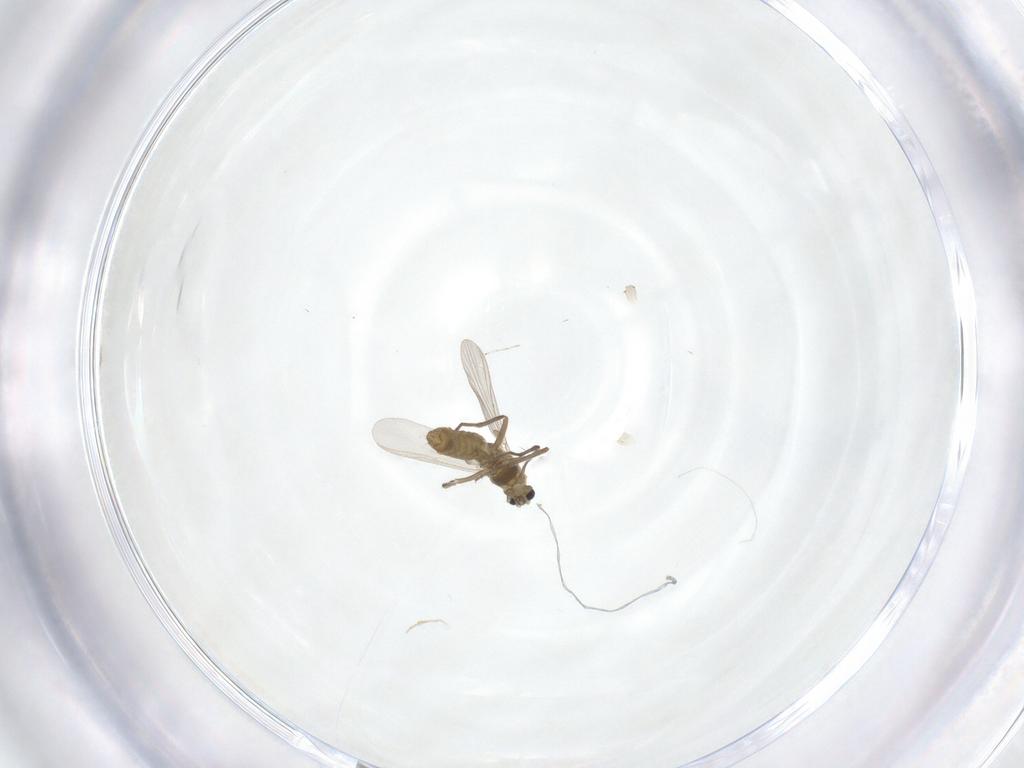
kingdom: Animalia
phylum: Arthropoda
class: Insecta
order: Diptera
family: Chironomidae
